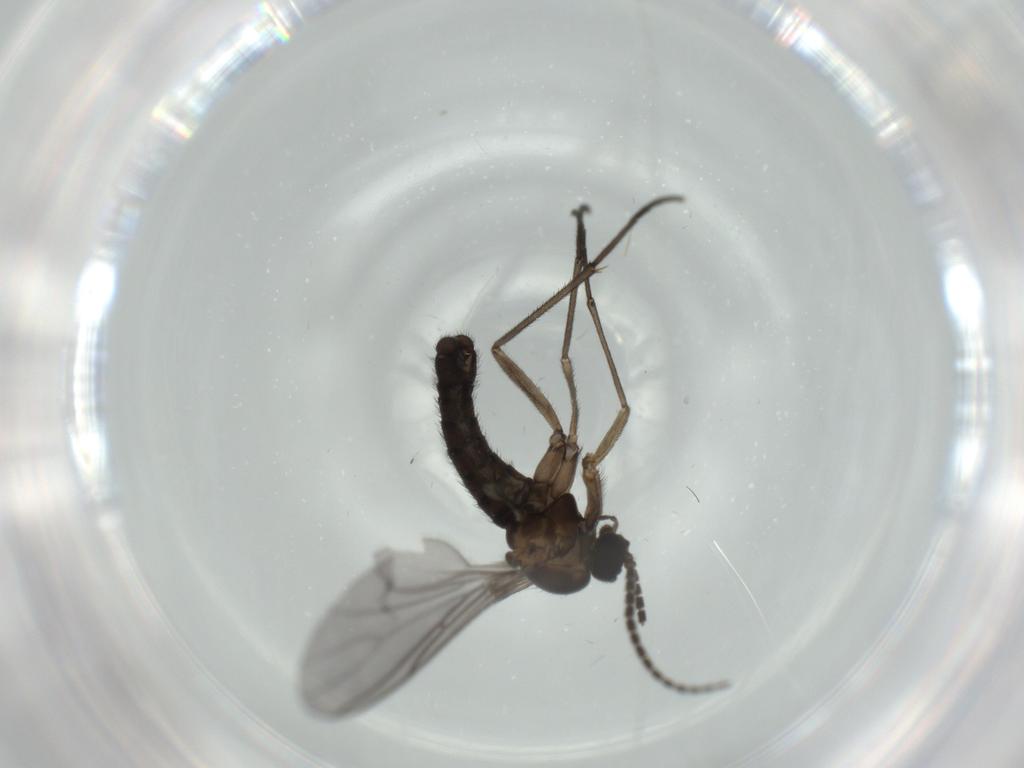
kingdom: Animalia
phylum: Arthropoda
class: Insecta
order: Diptera
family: Sciaridae
